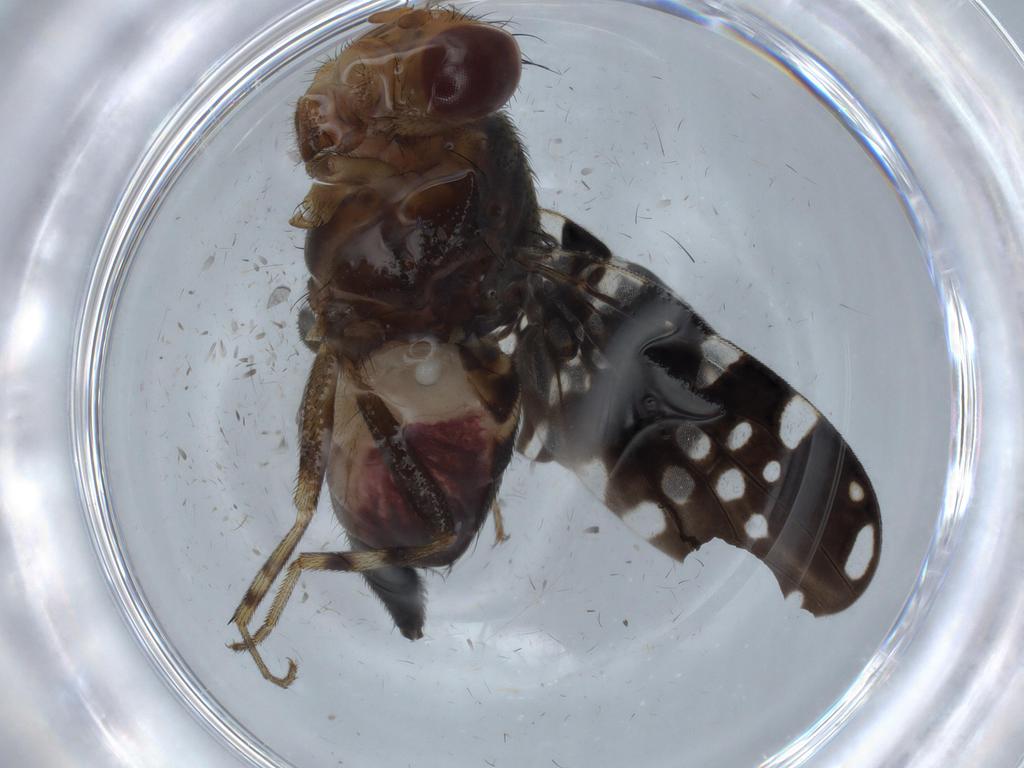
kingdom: Animalia
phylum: Arthropoda
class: Insecta
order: Diptera
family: Ulidiidae
